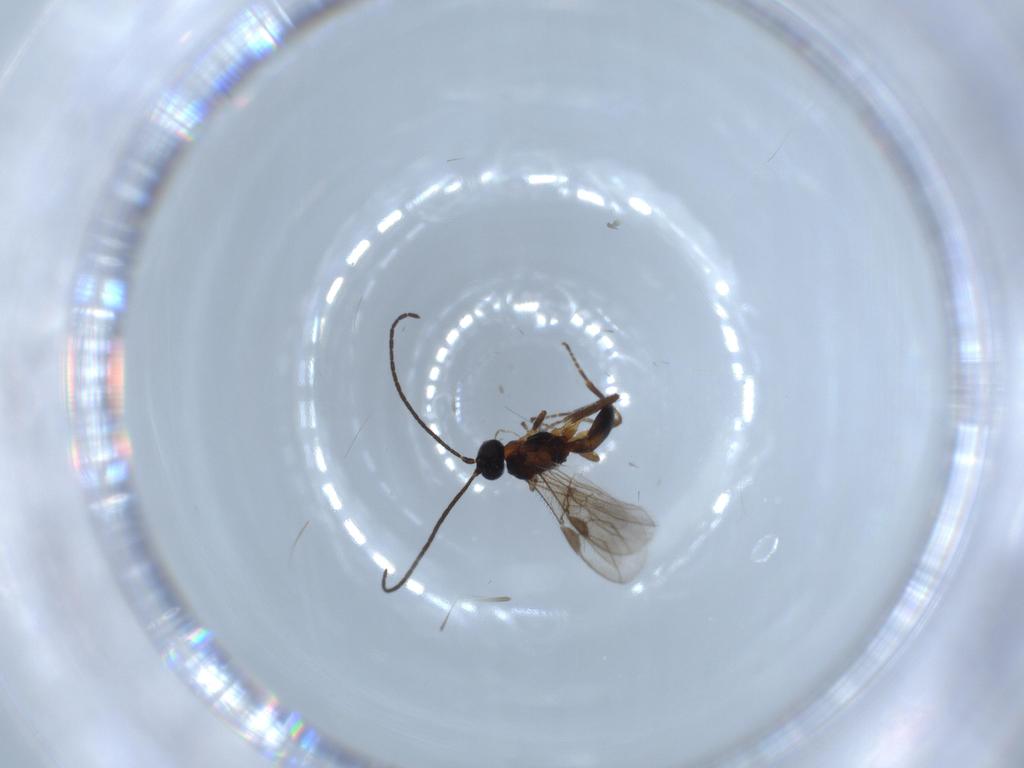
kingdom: Animalia
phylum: Arthropoda
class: Insecta
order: Hymenoptera
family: Braconidae
